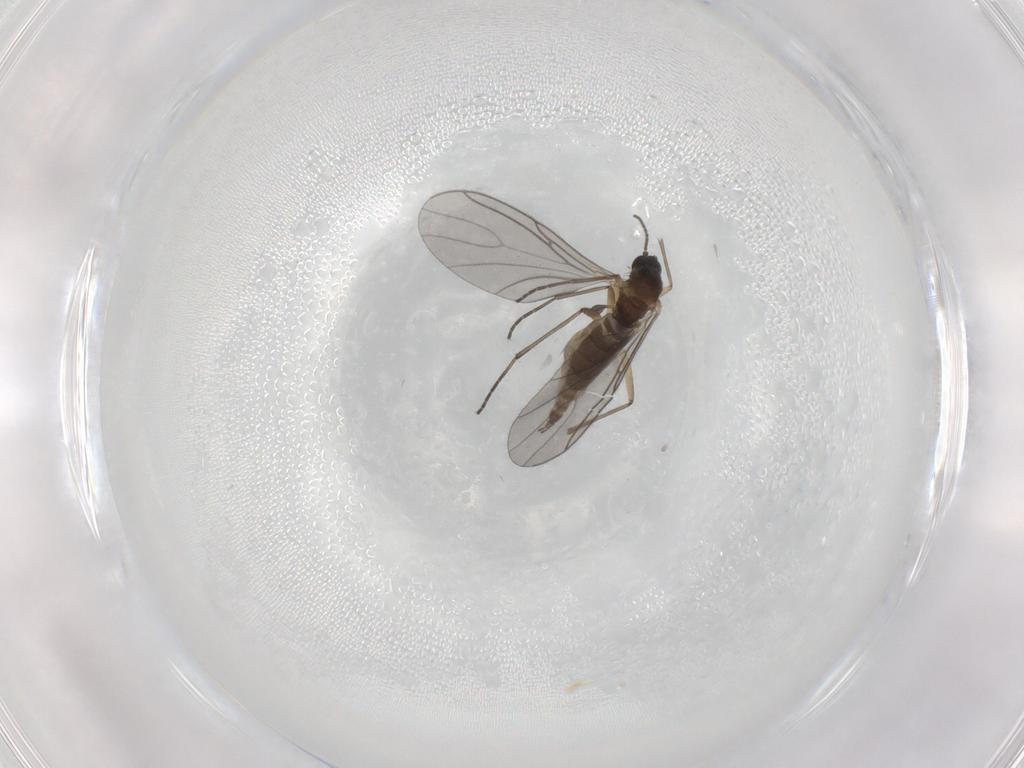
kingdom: Animalia
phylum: Arthropoda
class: Insecta
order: Diptera
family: Sciaridae
